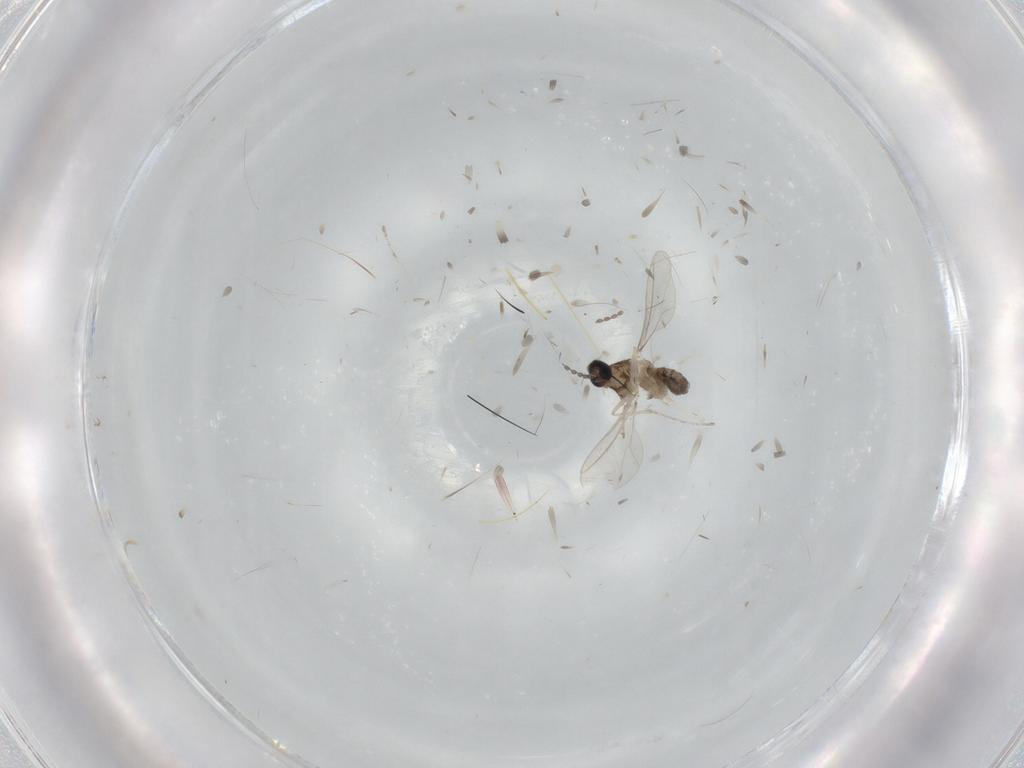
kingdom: Animalia
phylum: Arthropoda
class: Insecta
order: Diptera
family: Cecidomyiidae
